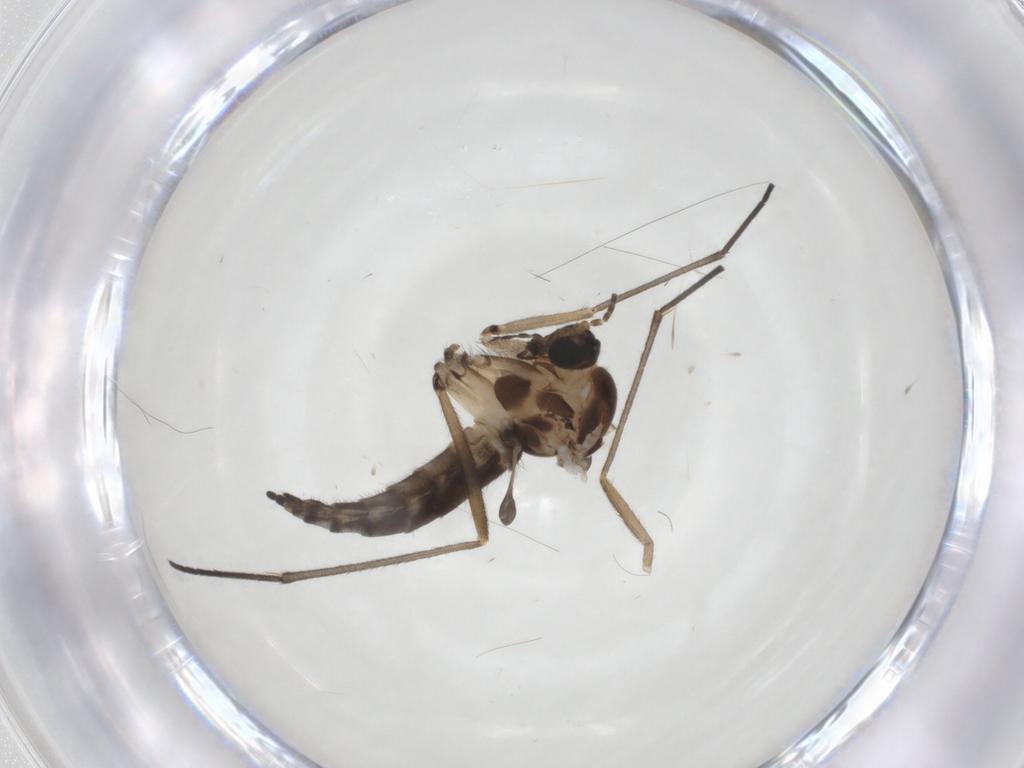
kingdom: Animalia
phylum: Arthropoda
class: Insecta
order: Diptera
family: Sciaridae
